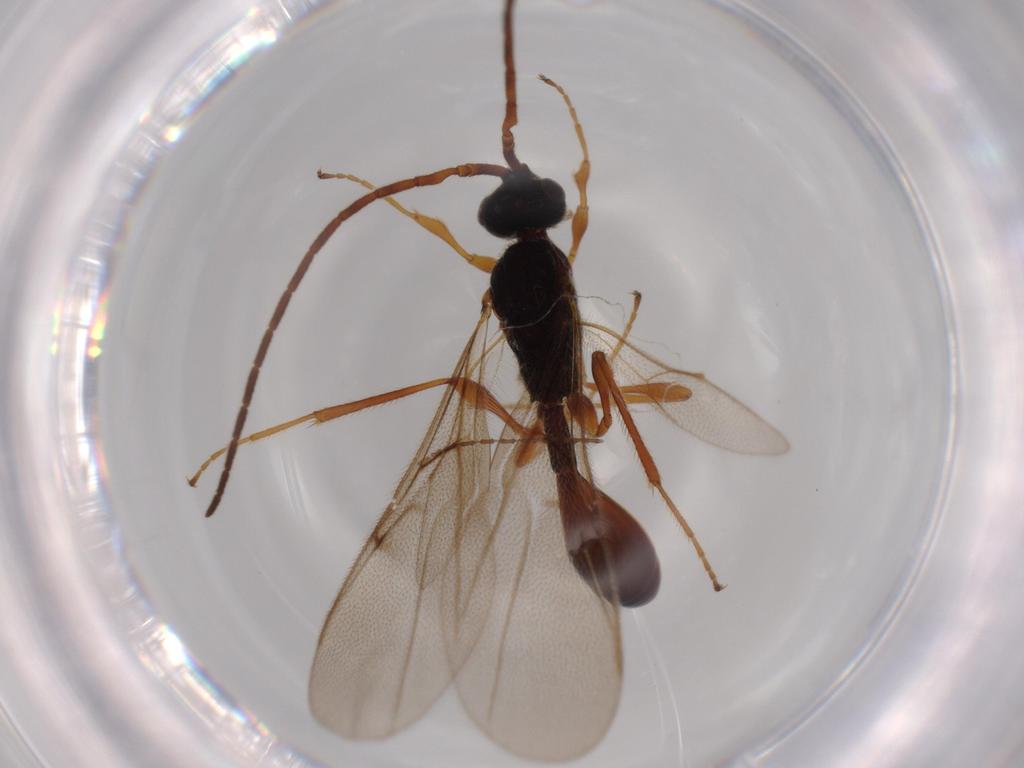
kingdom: Animalia
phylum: Arthropoda
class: Insecta
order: Hymenoptera
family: Diapriidae
